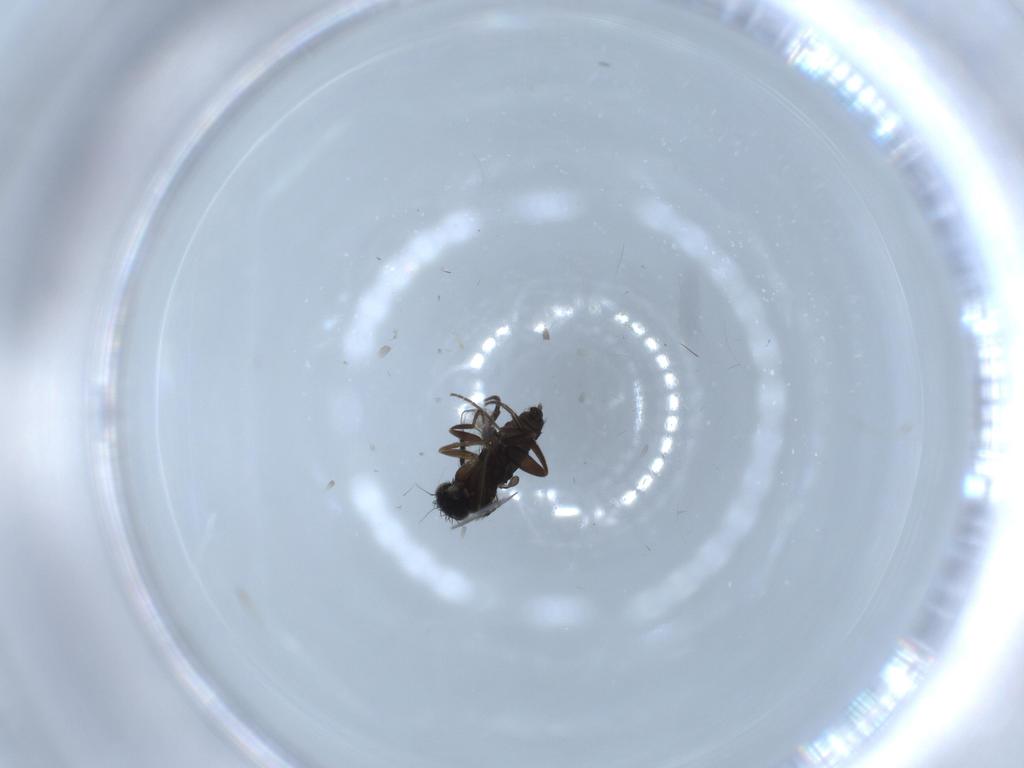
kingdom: Animalia
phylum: Arthropoda
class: Insecta
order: Diptera
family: Phoridae
